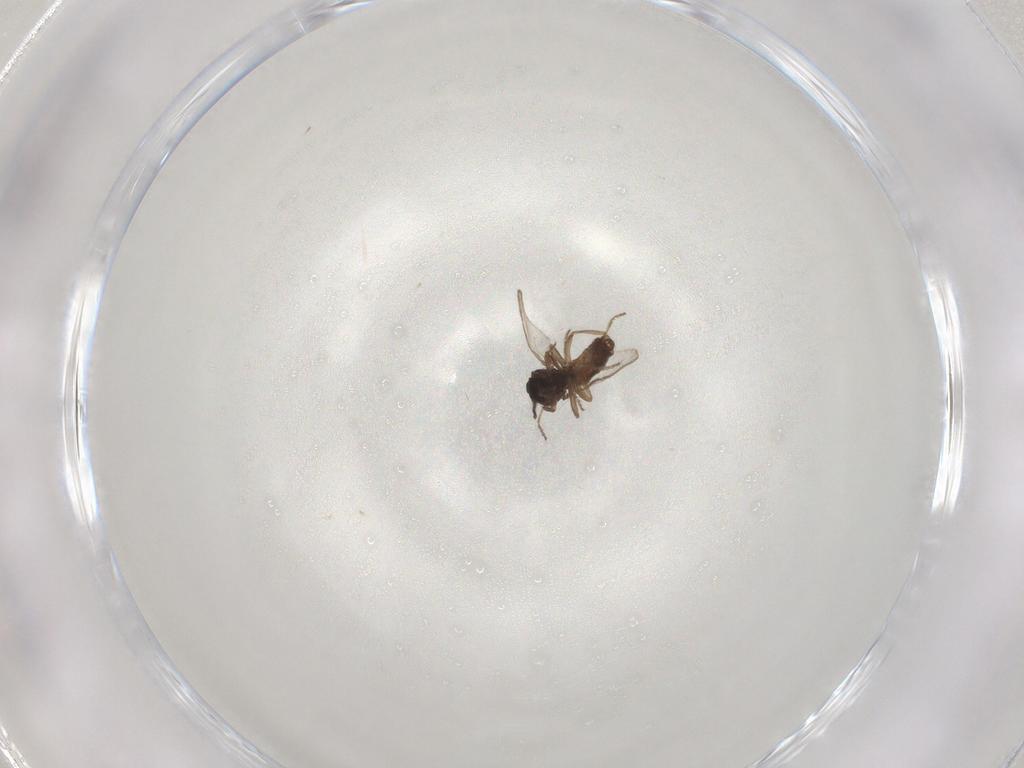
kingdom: Animalia
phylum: Arthropoda
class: Insecta
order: Diptera
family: Ceratopogonidae
